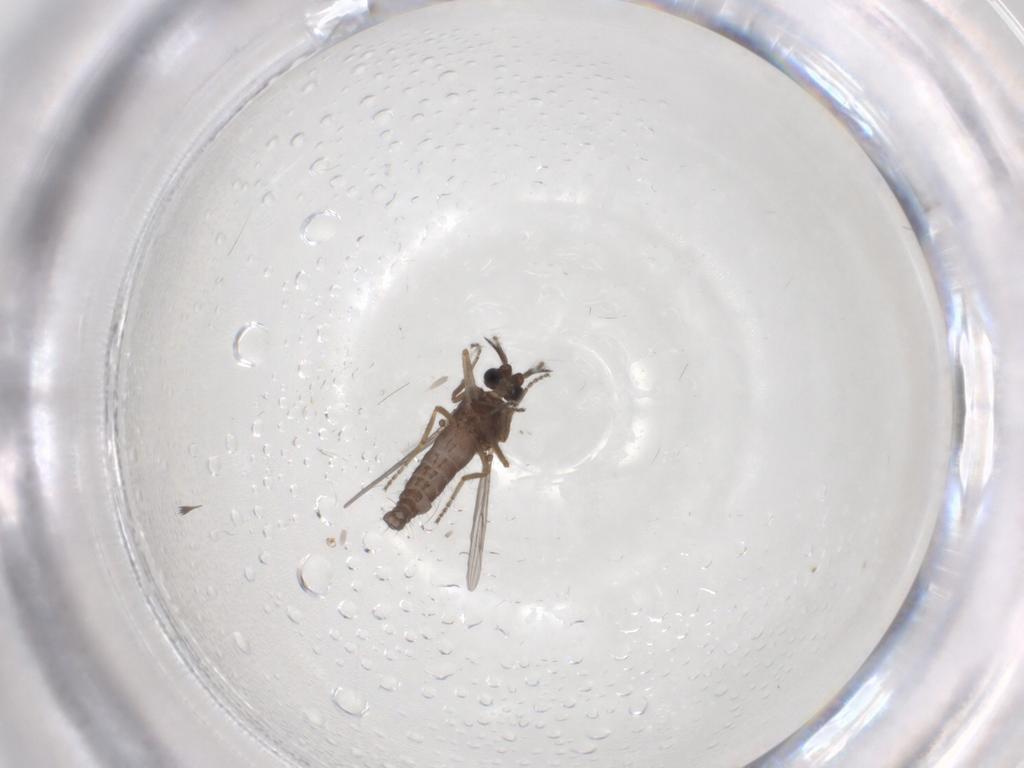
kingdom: Animalia
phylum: Arthropoda
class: Insecta
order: Diptera
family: Ceratopogonidae
